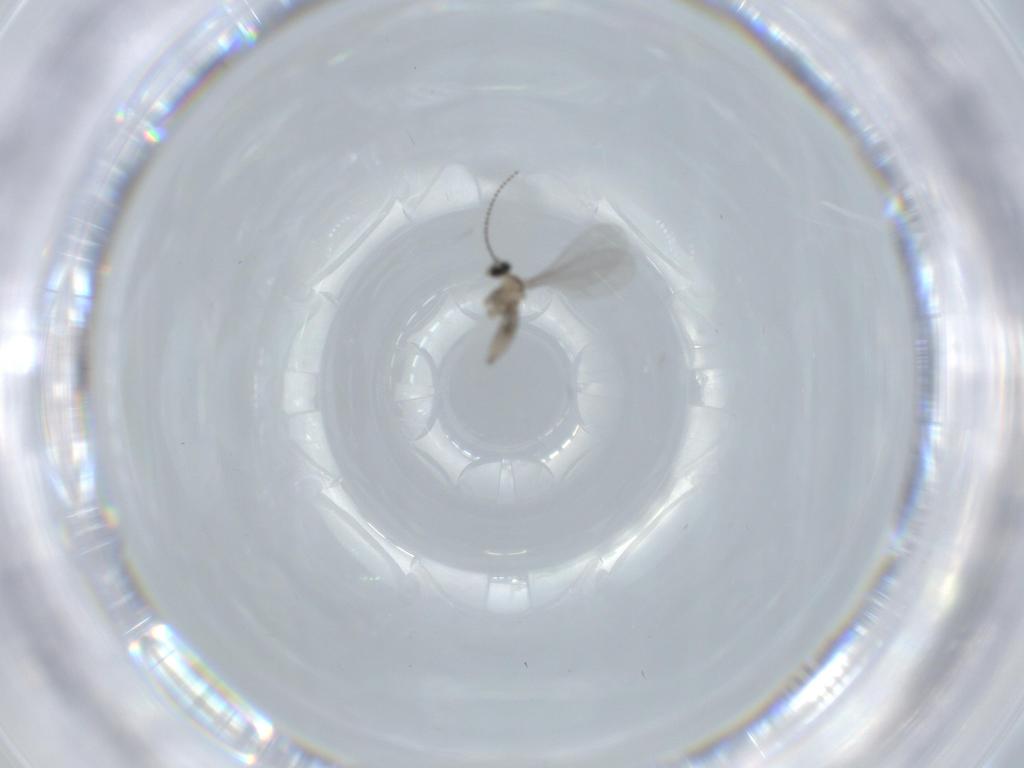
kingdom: Animalia
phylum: Arthropoda
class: Insecta
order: Diptera
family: Cecidomyiidae
